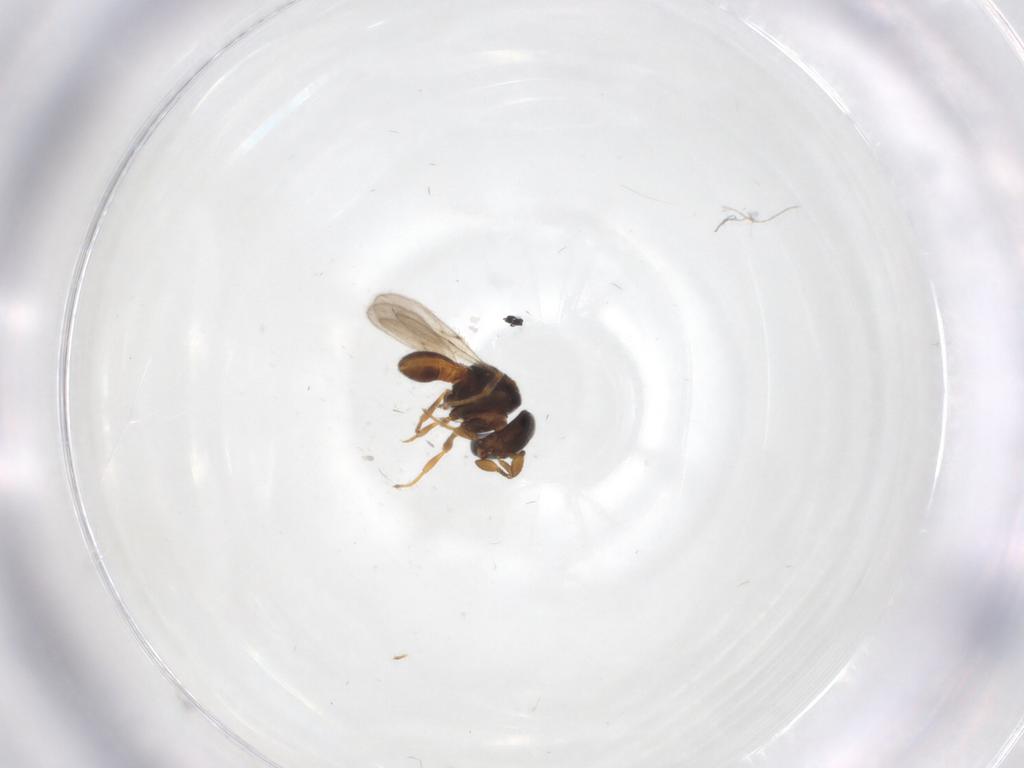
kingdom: Animalia
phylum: Arthropoda
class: Insecta
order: Hymenoptera
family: Scelionidae
